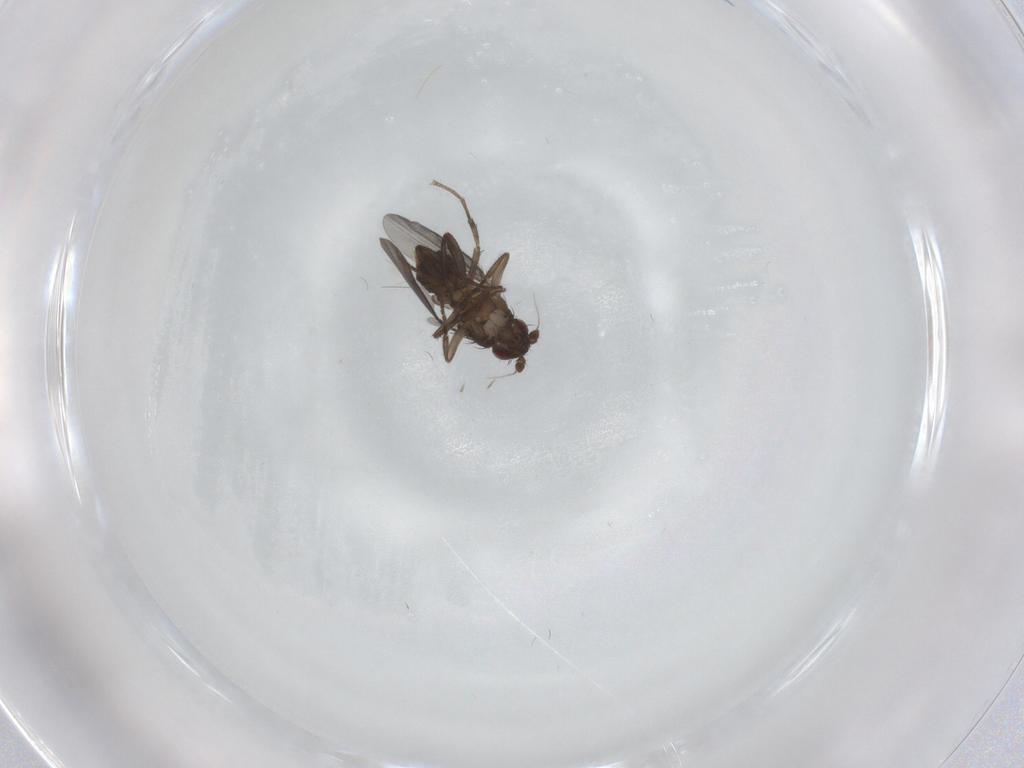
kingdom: Animalia
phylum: Arthropoda
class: Insecta
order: Diptera
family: Sphaeroceridae
